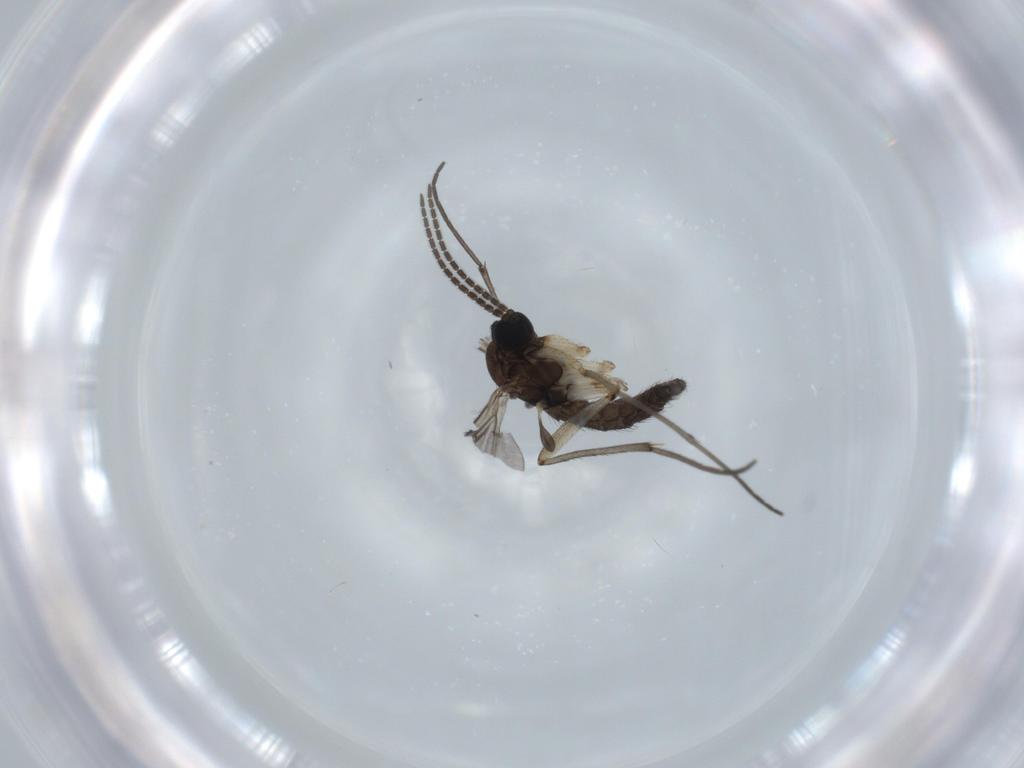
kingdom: Animalia
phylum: Arthropoda
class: Insecta
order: Diptera
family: Sciaridae
